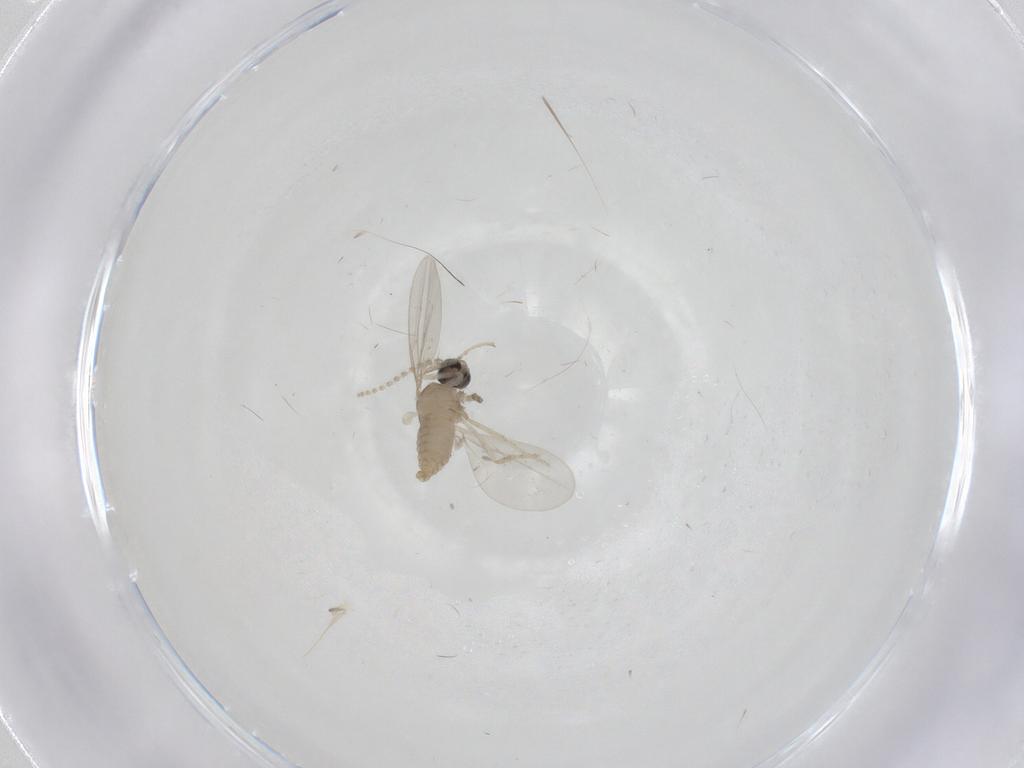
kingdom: Animalia
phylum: Arthropoda
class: Insecta
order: Diptera
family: Cecidomyiidae
